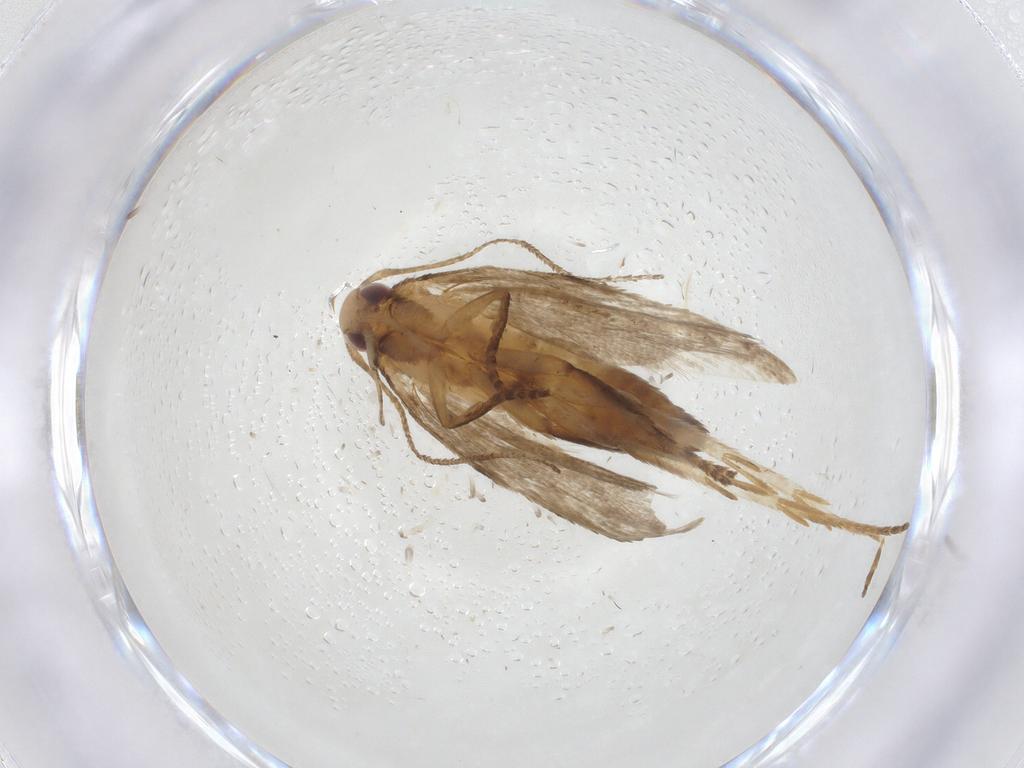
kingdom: Animalia
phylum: Arthropoda
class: Insecta
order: Lepidoptera
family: Gelechiidae
